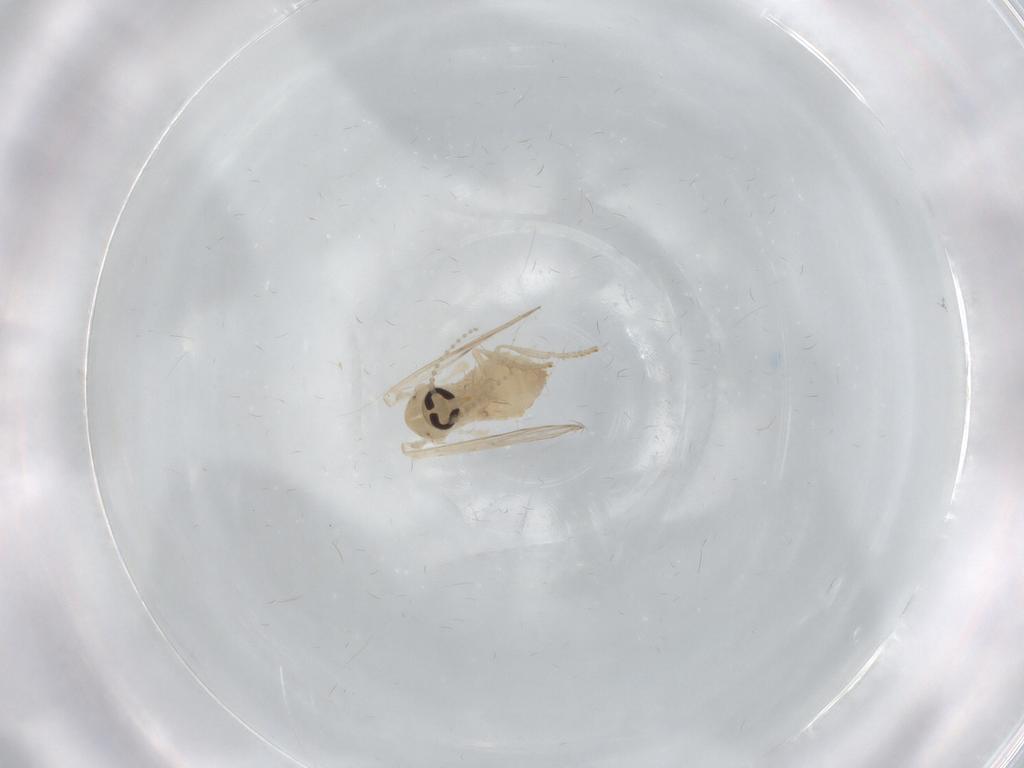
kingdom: Animalia
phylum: Arthropoda
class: Insecta
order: Diptera
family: Psychodidae
